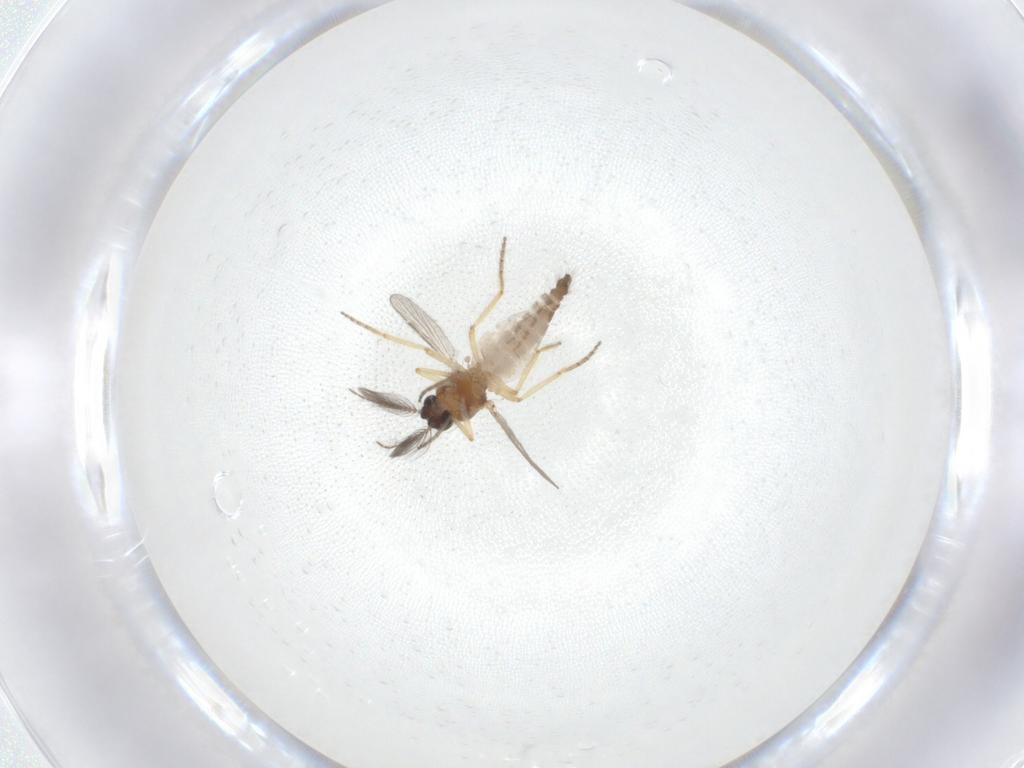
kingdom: Animalia
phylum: Arthropoda
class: Insecta
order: Diptera
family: Ceratopogonidae
